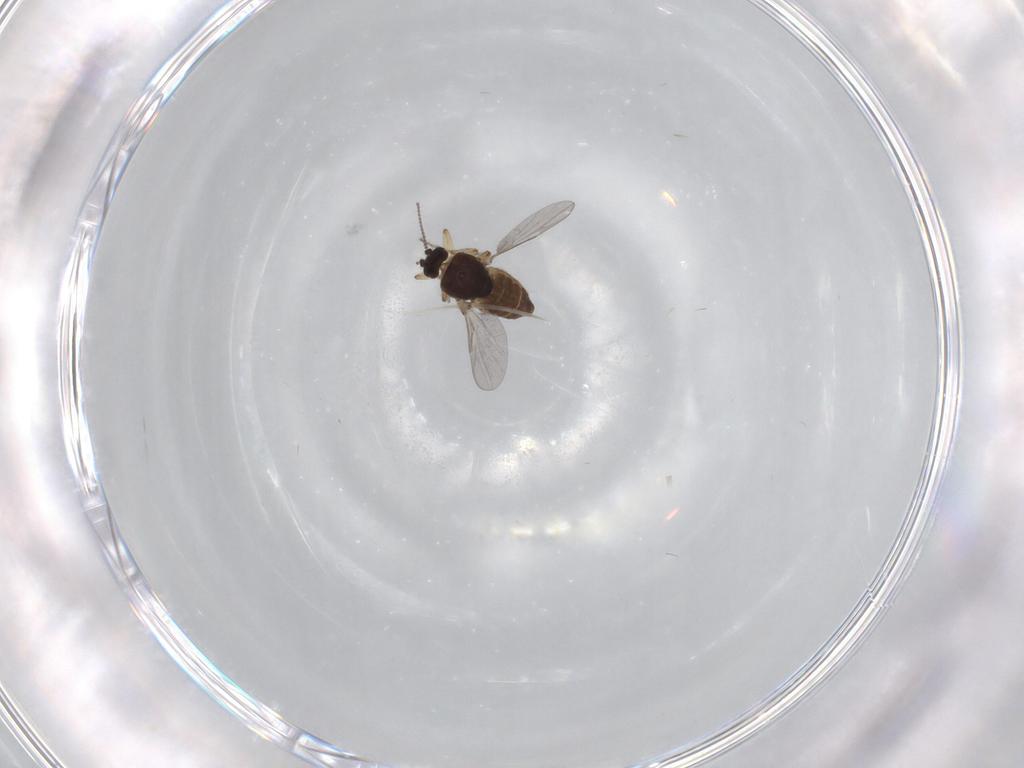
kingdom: Animalia
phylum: Arthropoda
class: Insecta
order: Diptera
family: Ceratopogonidae
